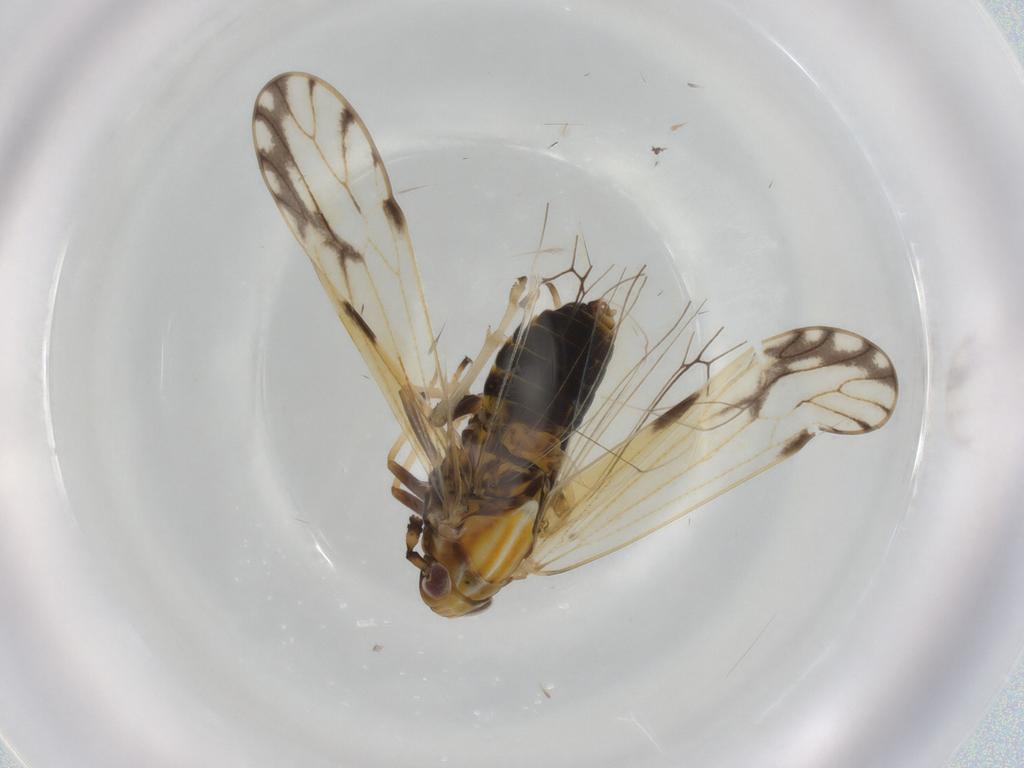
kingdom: Animalia
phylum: Arthropoda
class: Insecta
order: Hemiptera
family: Delphacidae
